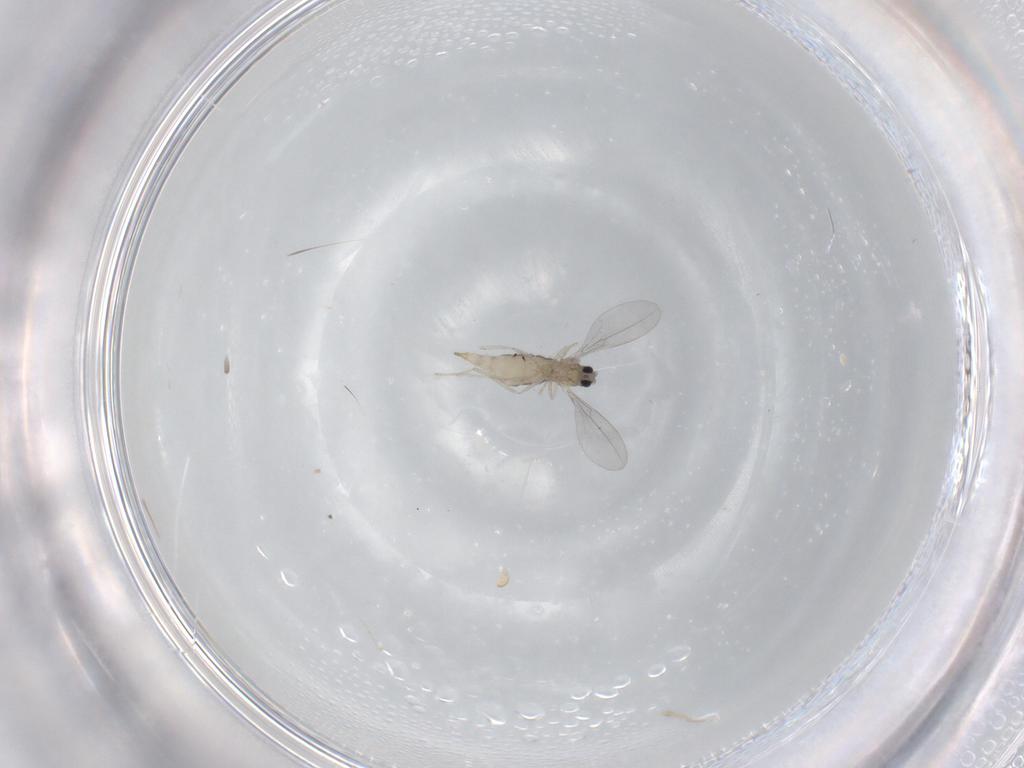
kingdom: Animalia
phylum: Arthropoda
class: Insecta
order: Diptera
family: Cecidomyiidae
